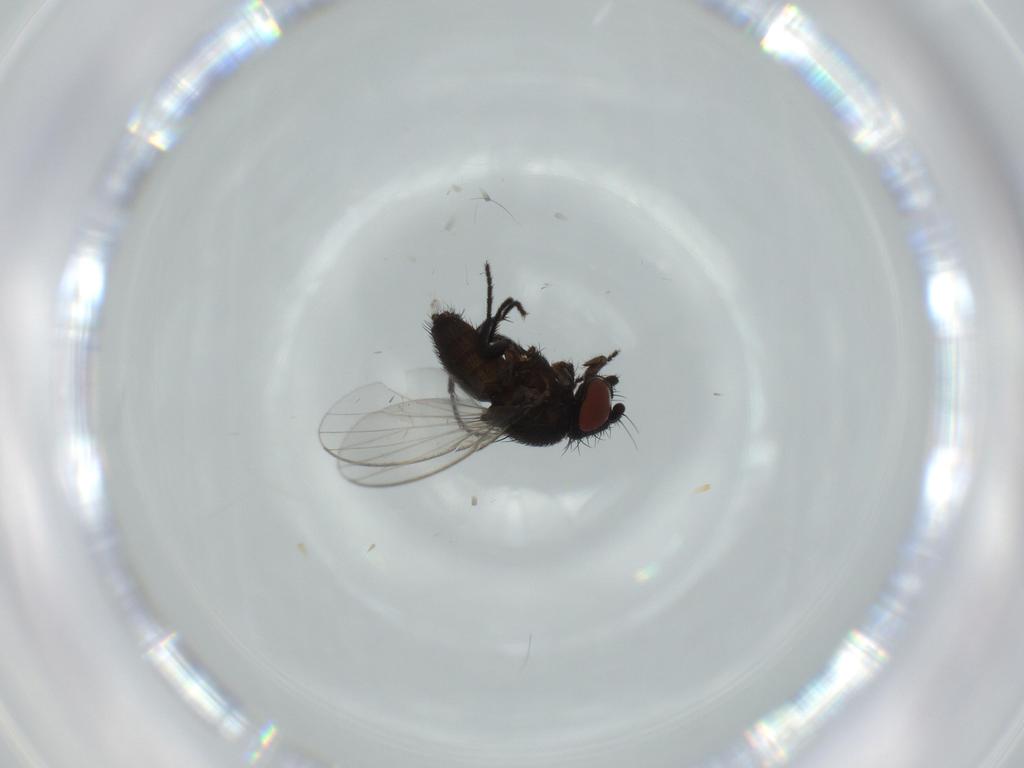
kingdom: Animalia
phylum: Arthropoda
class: Insecta
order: Diptera
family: Milichiidae
